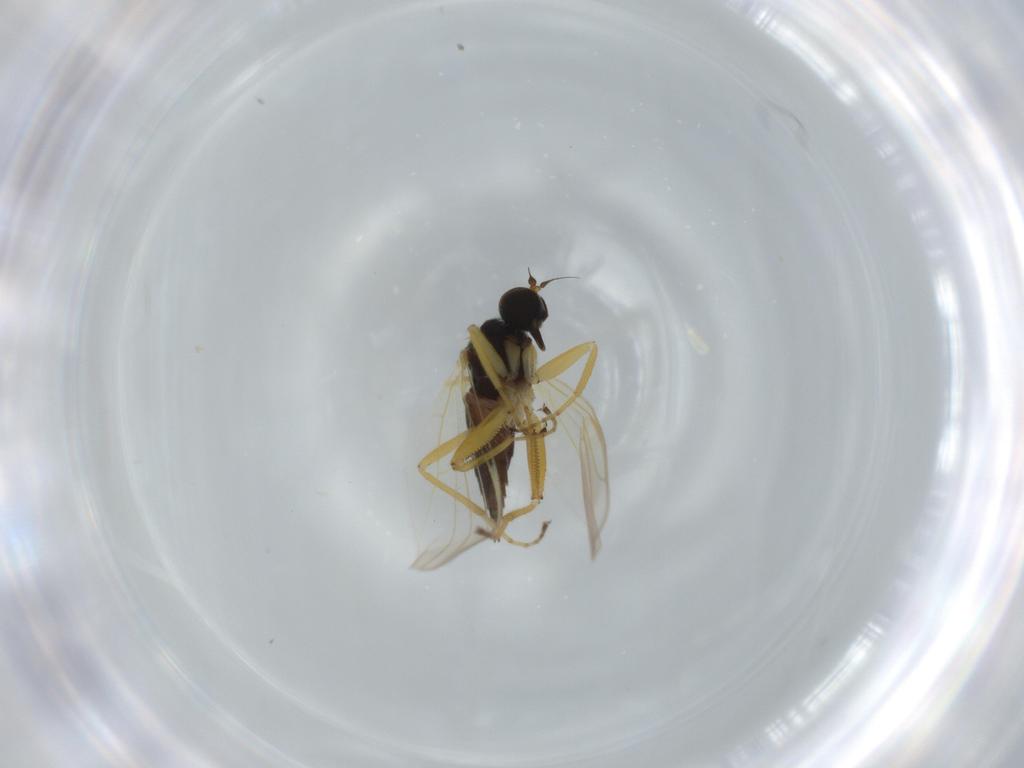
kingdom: Animalia
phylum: Arthropoda
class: Insecta
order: Diptera
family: Hybotidae
